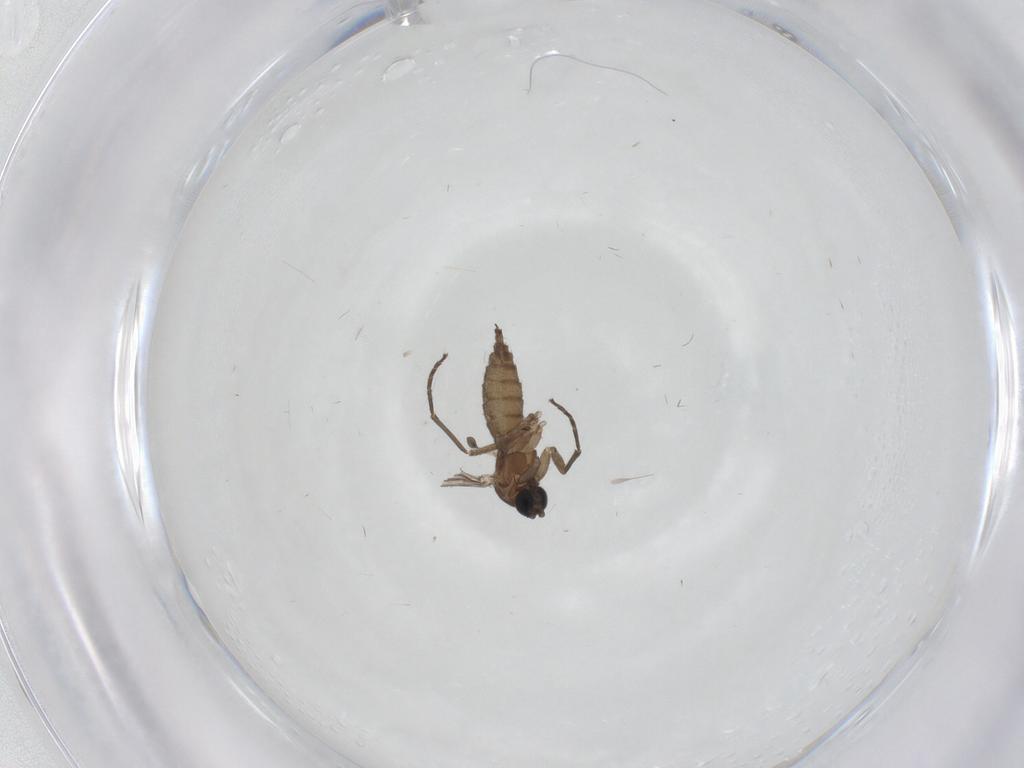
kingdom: Animalia
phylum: Arthropoda
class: Insecta
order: Diptera
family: Sciaridae
